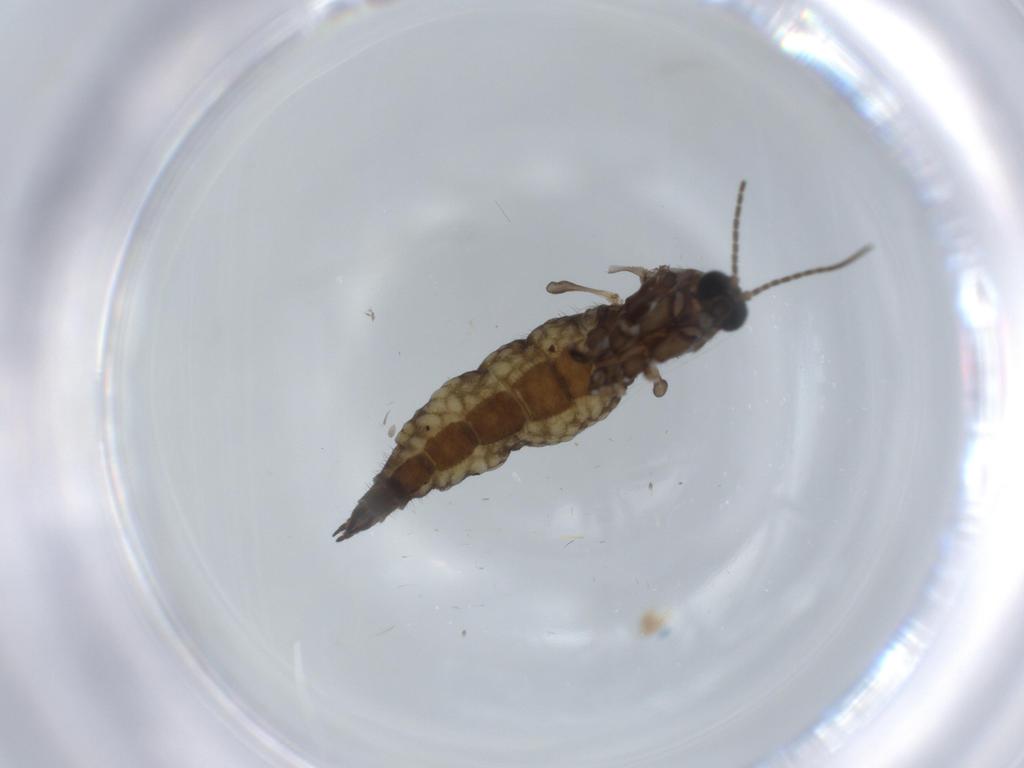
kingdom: Animalia
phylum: Arthropoda
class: Insecta
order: Diptera
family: Sciaridae
